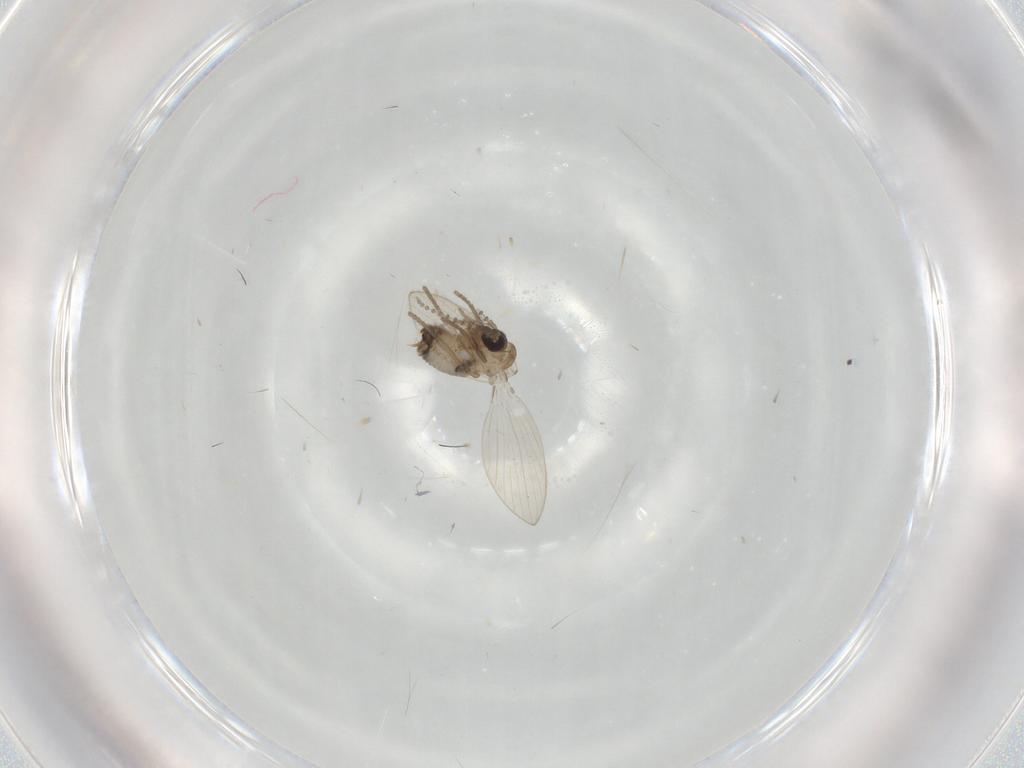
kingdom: Animalia
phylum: Arthropoda
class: Insecta
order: Diptera
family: Psychodidae
